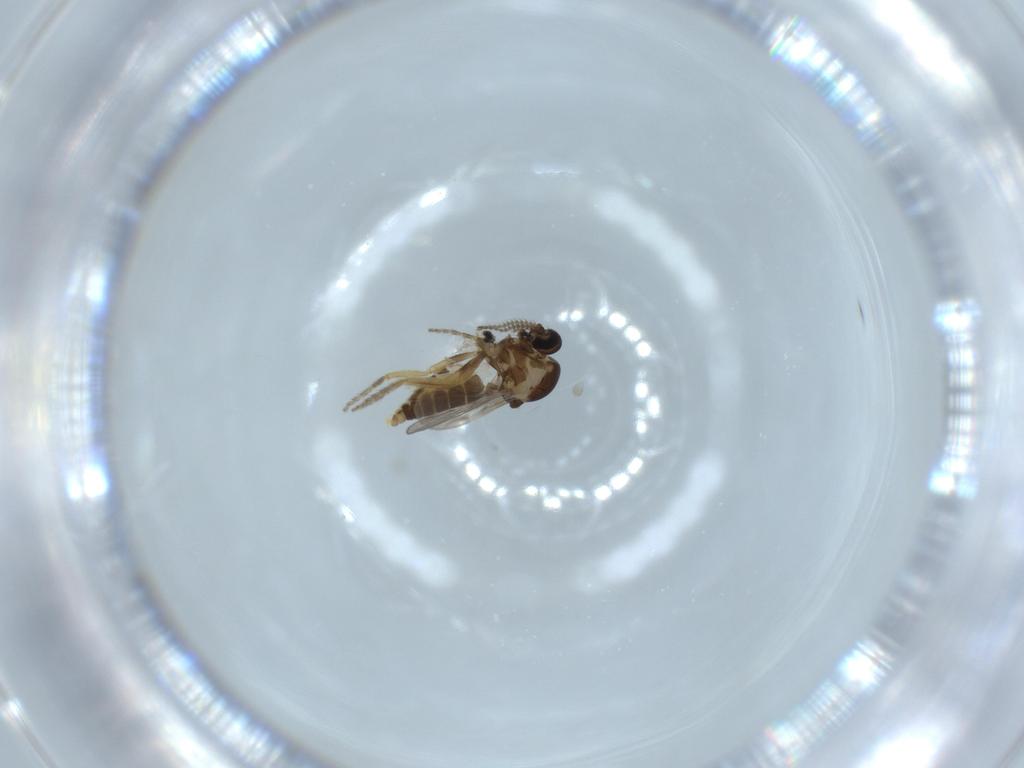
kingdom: Animalia
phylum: Arthropoda
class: Insecta
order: Diptera
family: Ceratopogonidae
